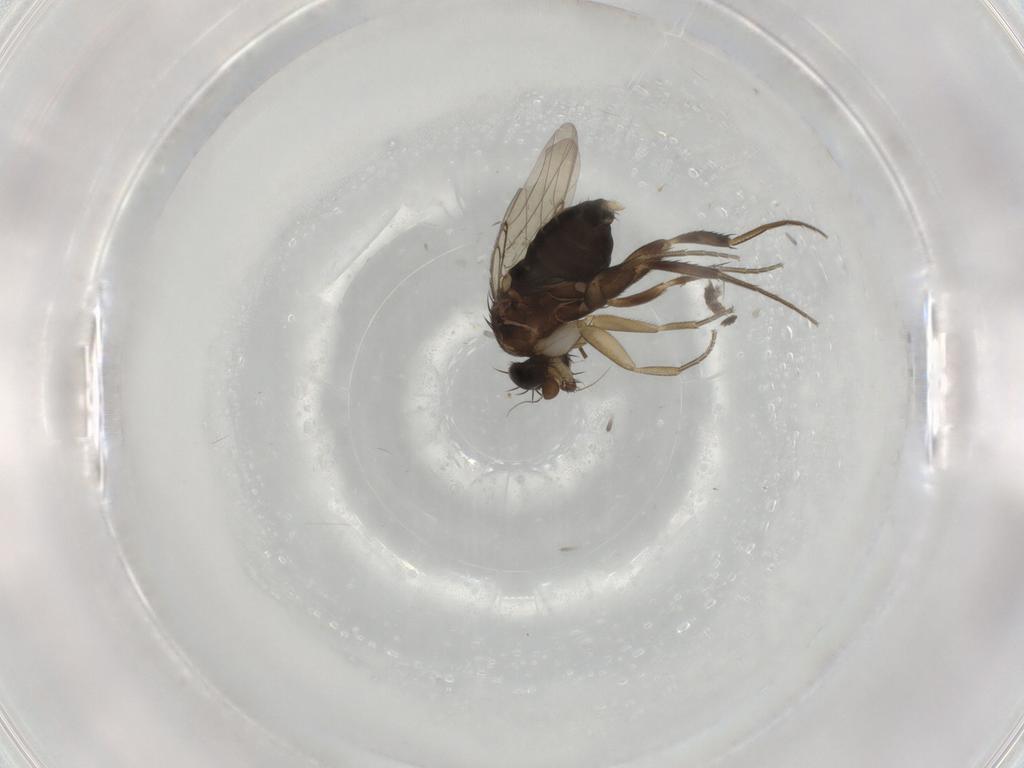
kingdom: Animalia
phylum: Arthropoda
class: Insecta
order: Diptera
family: Phoridae
